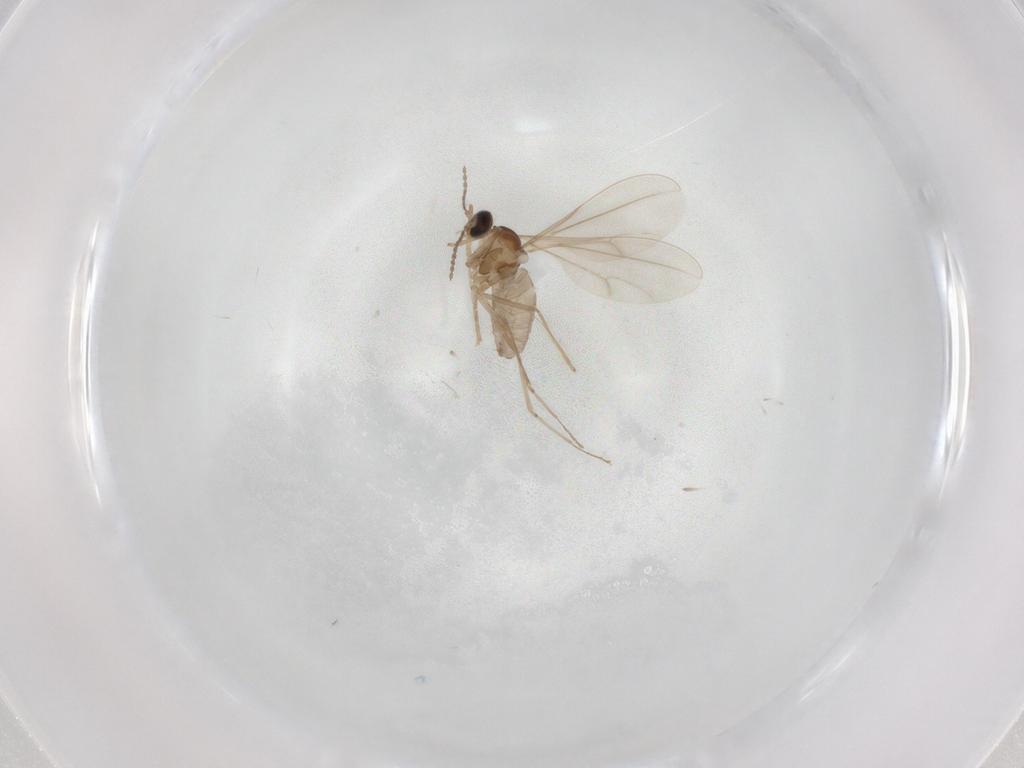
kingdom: Animalia
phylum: Arthropoda
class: Insecta
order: Diptera
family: Cecidomyiidae
